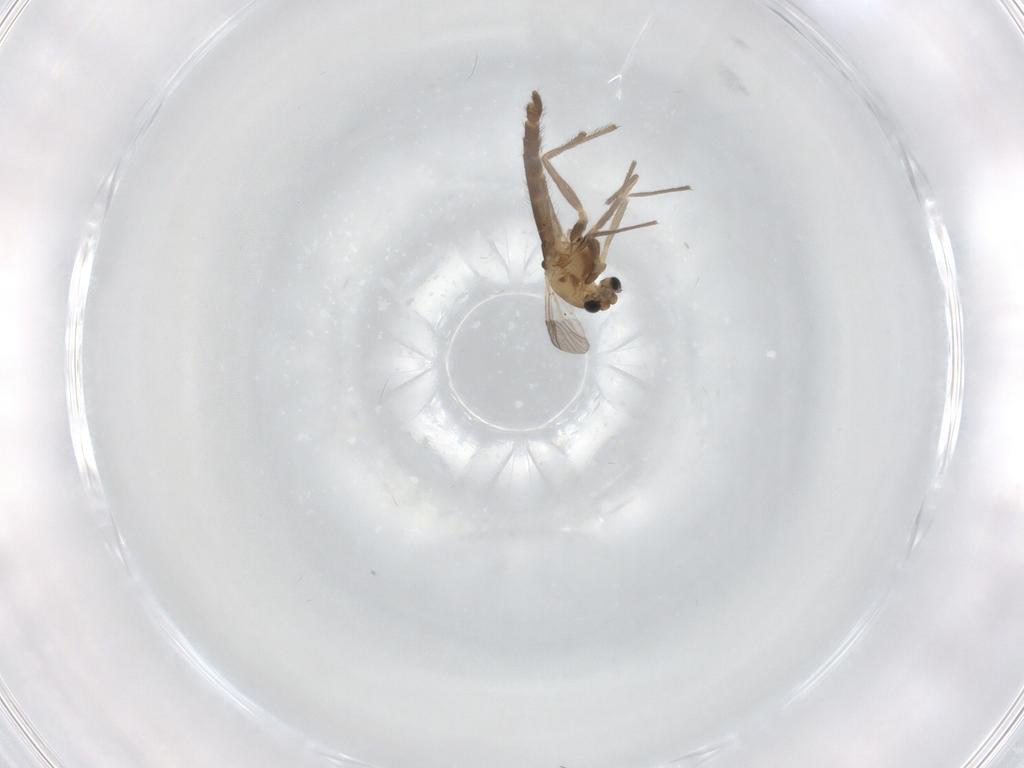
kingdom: Animalia
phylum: Arthropoda
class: Insecta
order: Diptera
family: Chironomidae
